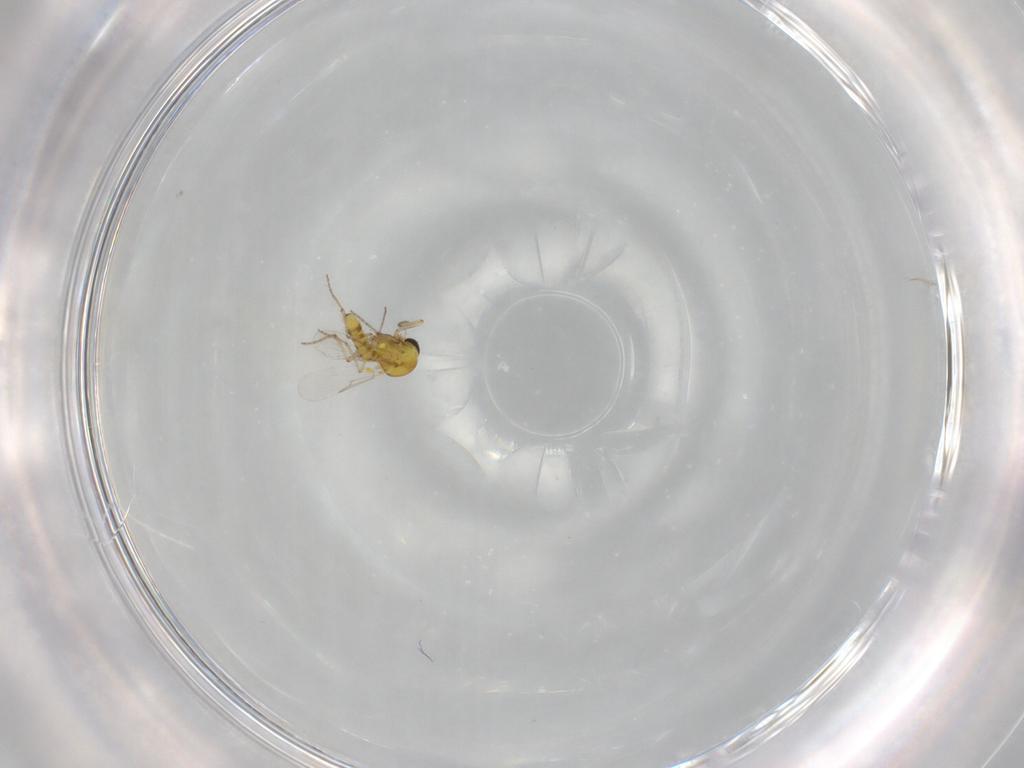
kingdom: Animalia
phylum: Arthropoda
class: Insecta
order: Diptera
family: Ceratopogonidae
